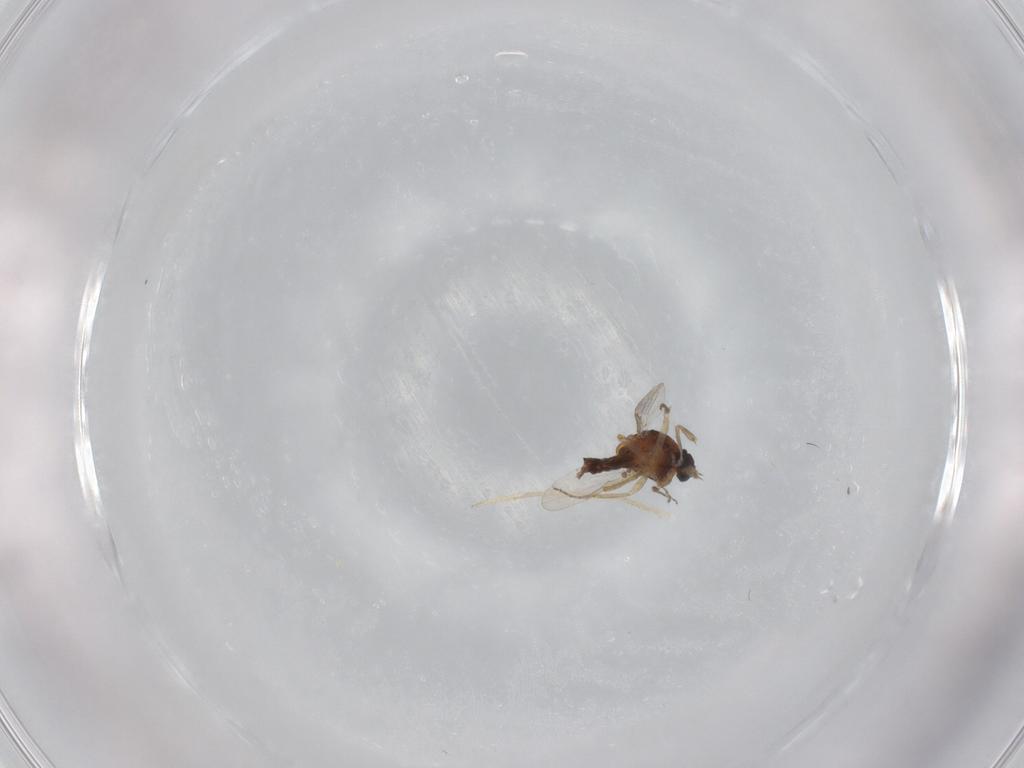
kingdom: Animalia
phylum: Arthropoda
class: Insecta
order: Diptera
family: Ceratopogonidae
